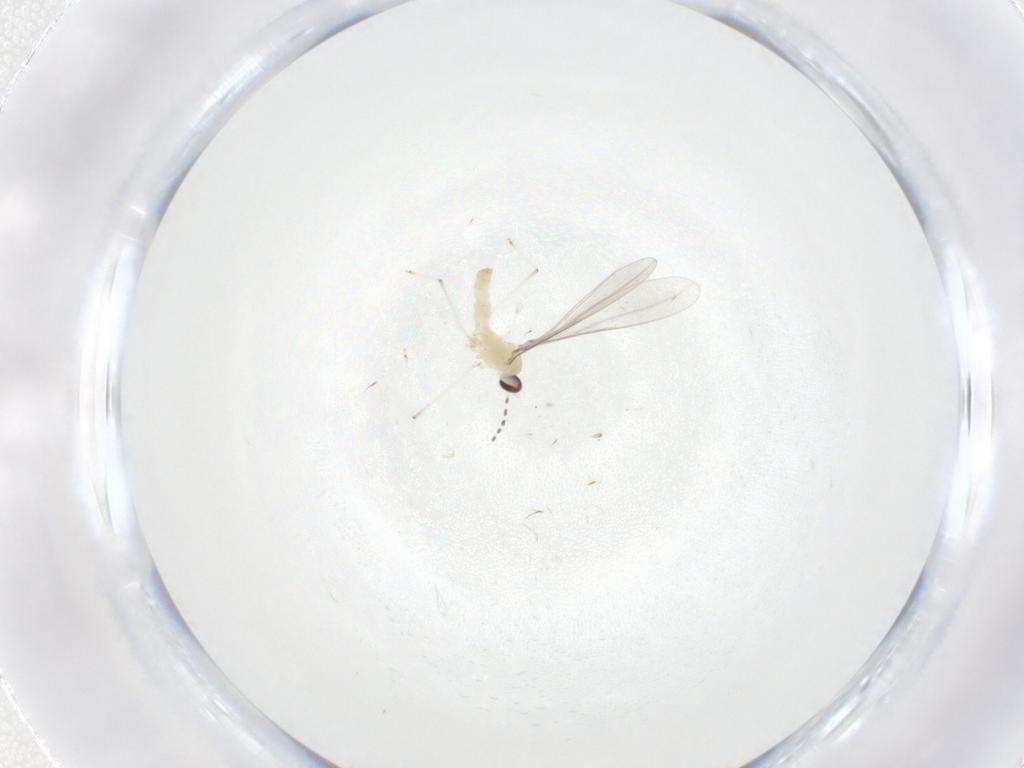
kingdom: Animalia
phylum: Arthropoda
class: Insecta
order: Diptera
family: Cecidomyiidae
